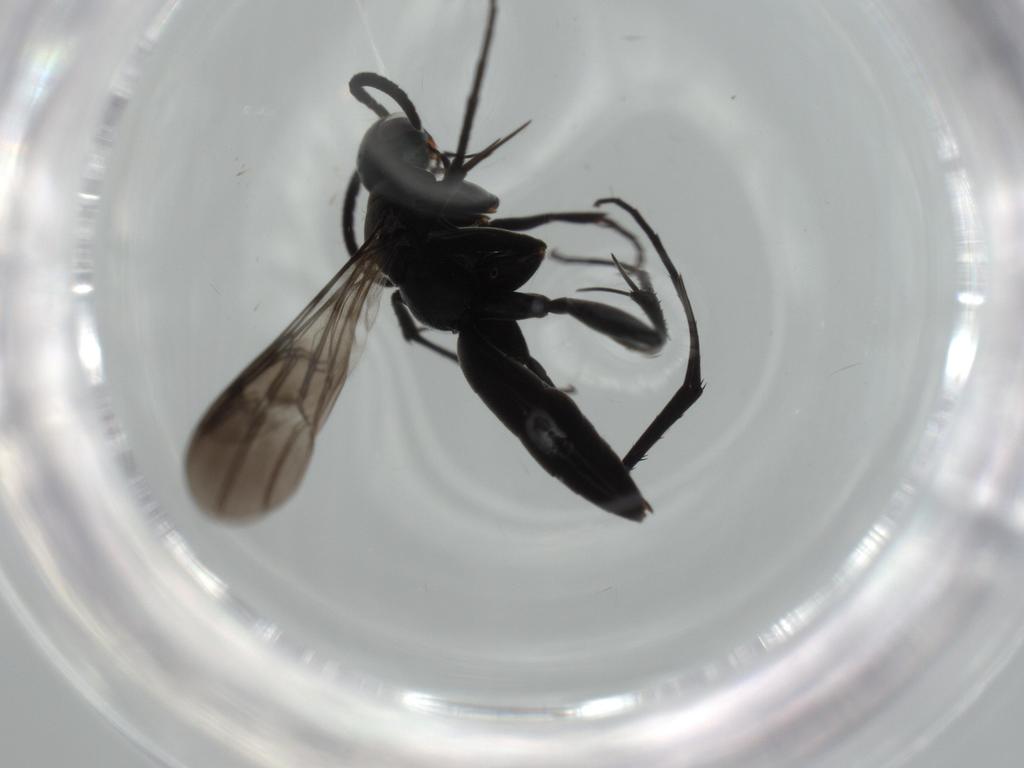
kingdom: Animalia
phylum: Arthropoda
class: Insecta
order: Hymenoptera
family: Pompilidae
